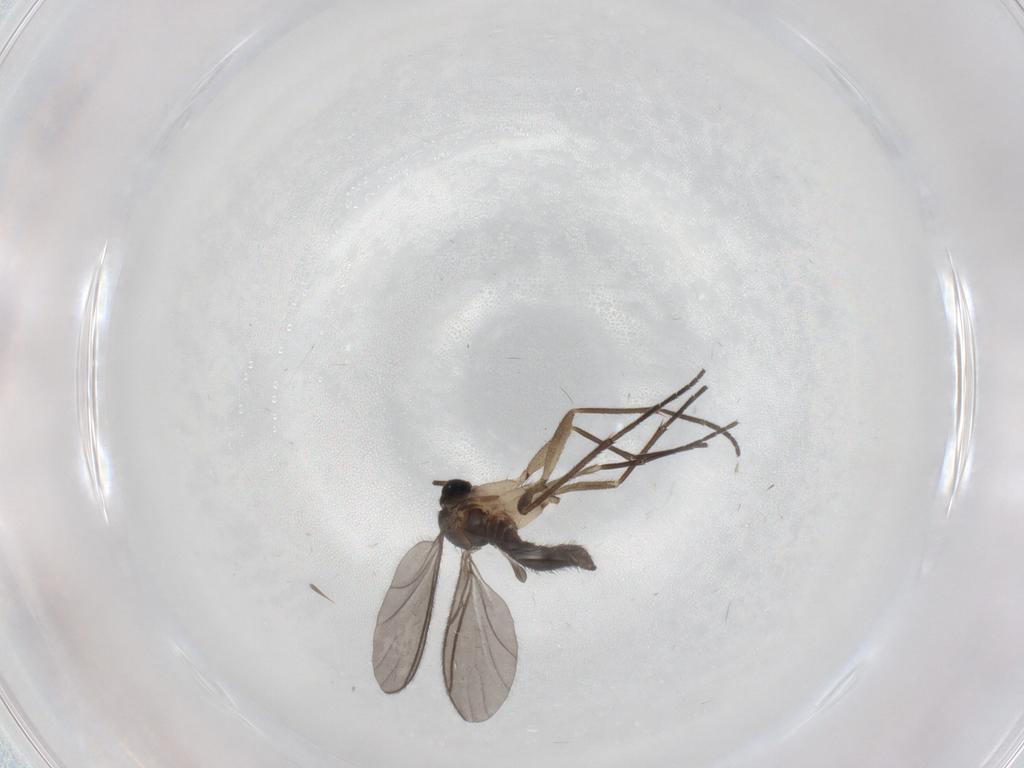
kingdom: Animalia
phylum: Arthropoda
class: Insecta
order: Diptera
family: Sciaridae
